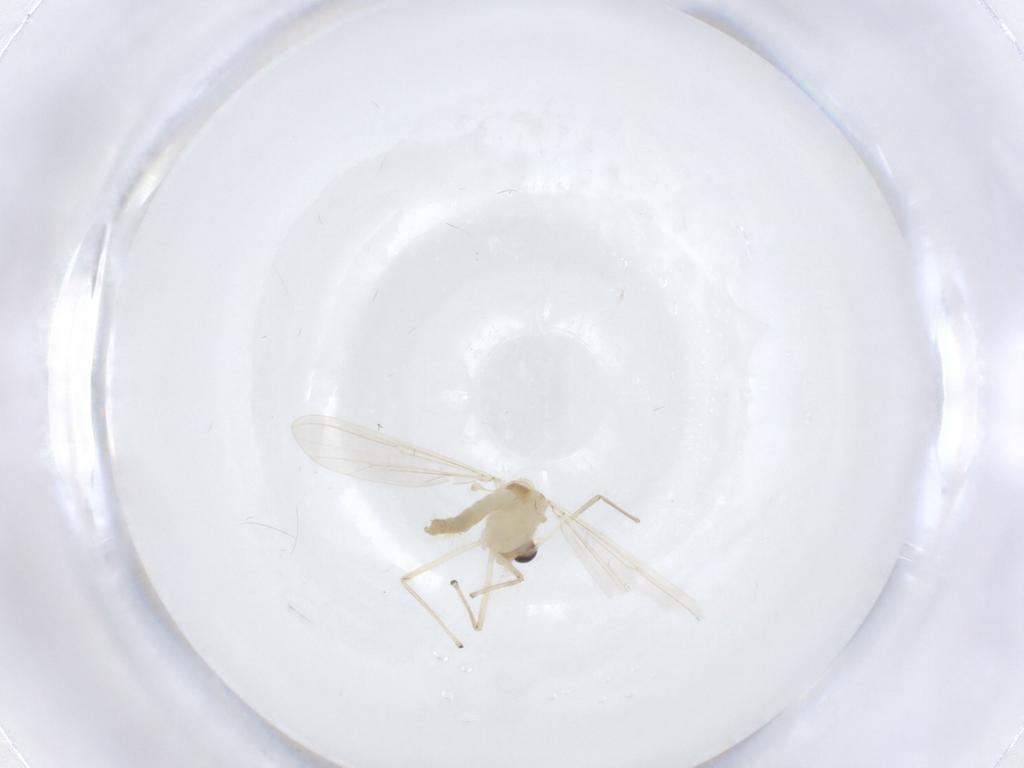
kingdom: Animalia
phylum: Arthropoda
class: Insecta
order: Diptera
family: Chironomidae
